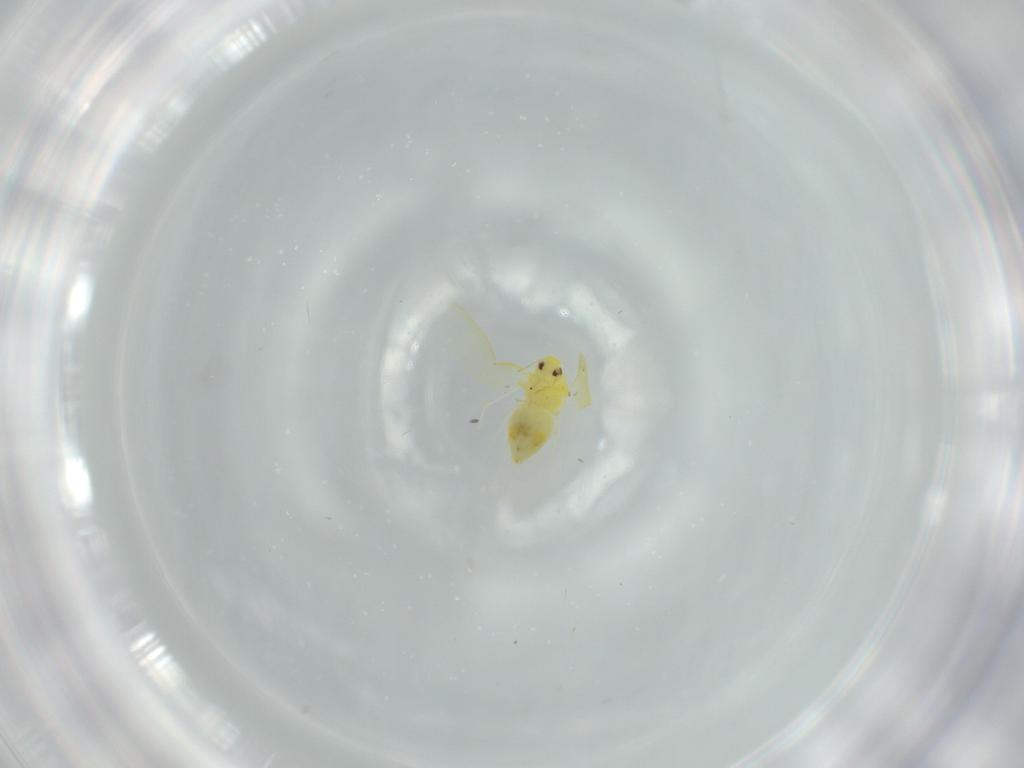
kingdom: Animalia
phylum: Arthropoda
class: Insecta
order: Hemiptera
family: Aleyrodidae
